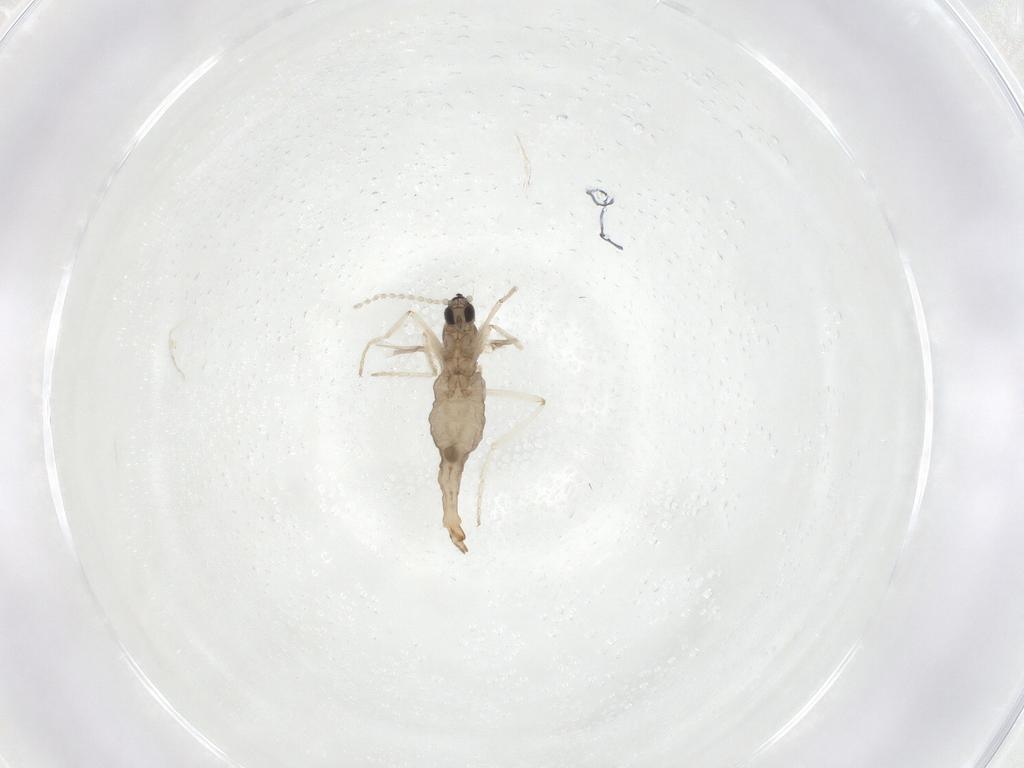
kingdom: Animalia
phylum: Arthropoda
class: Insecta
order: Diptera
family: Cecidomyiidae
